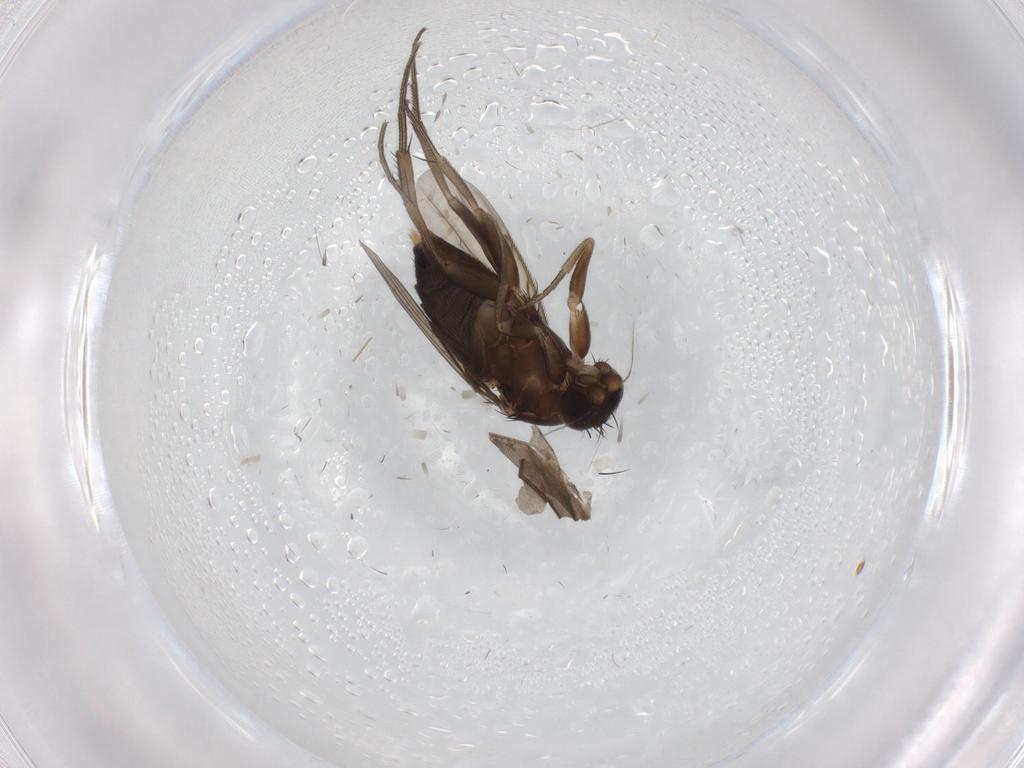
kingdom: Animalia
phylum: Arthropoda
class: Insecta
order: Diptera
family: Phoridae
